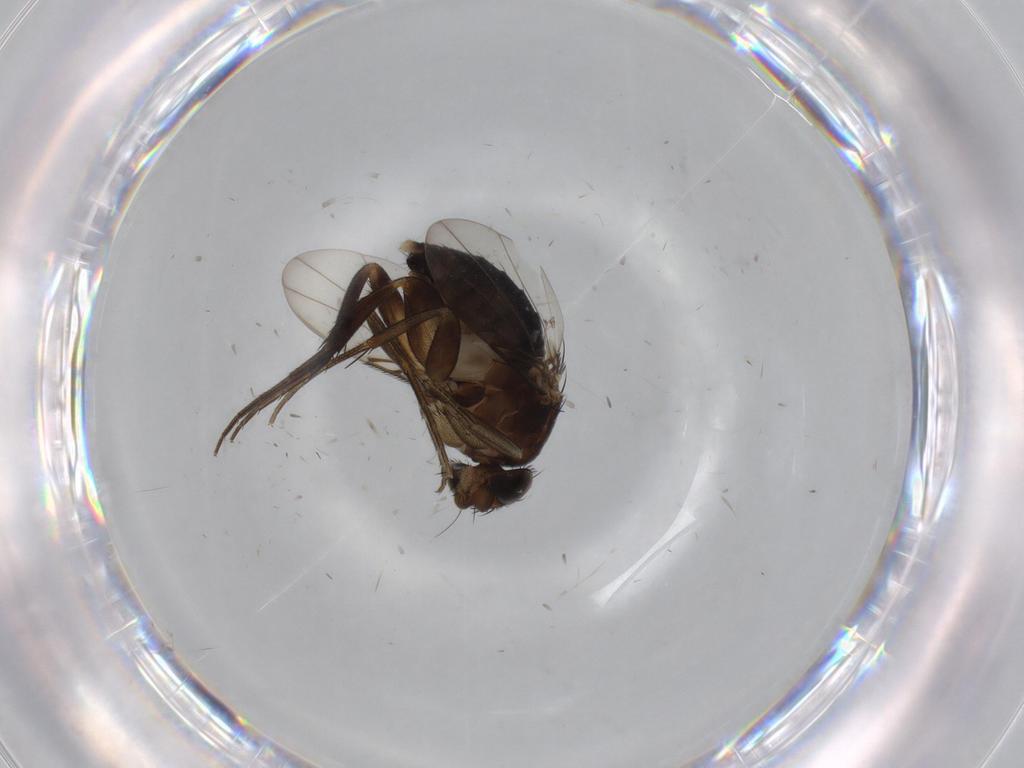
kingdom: Animalia
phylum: Arthropoda
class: Insecta
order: Diptera
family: Phoridae
